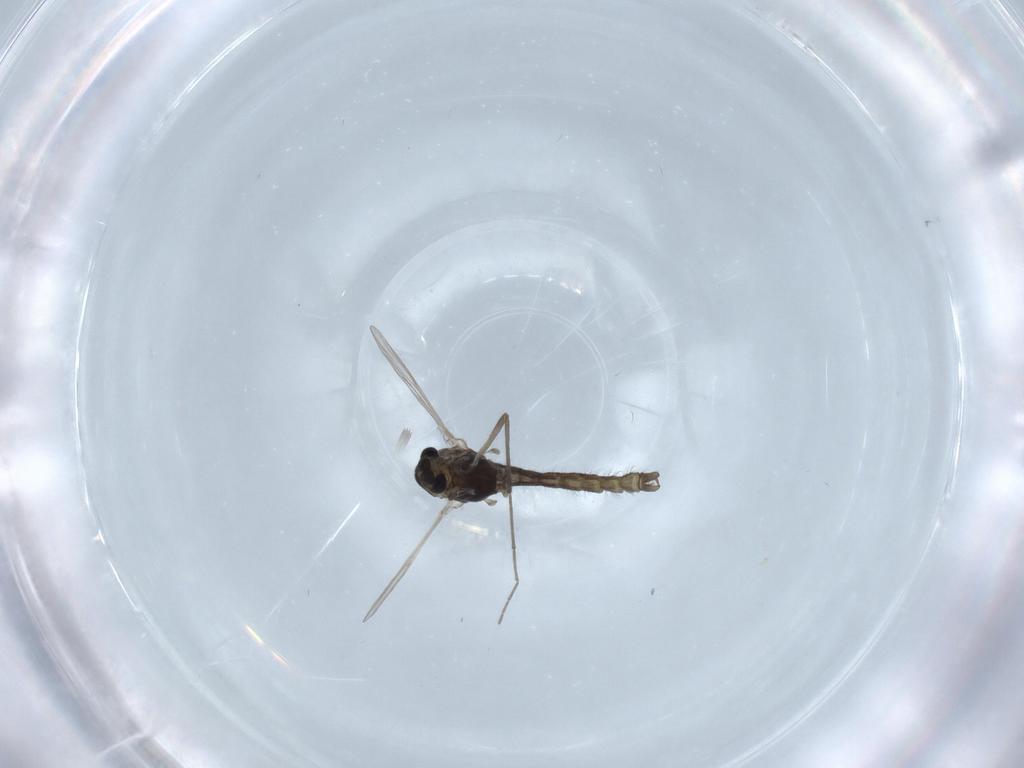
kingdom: Animalia
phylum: Arthropoda
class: Insecta
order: Diptera
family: Chironomidae
